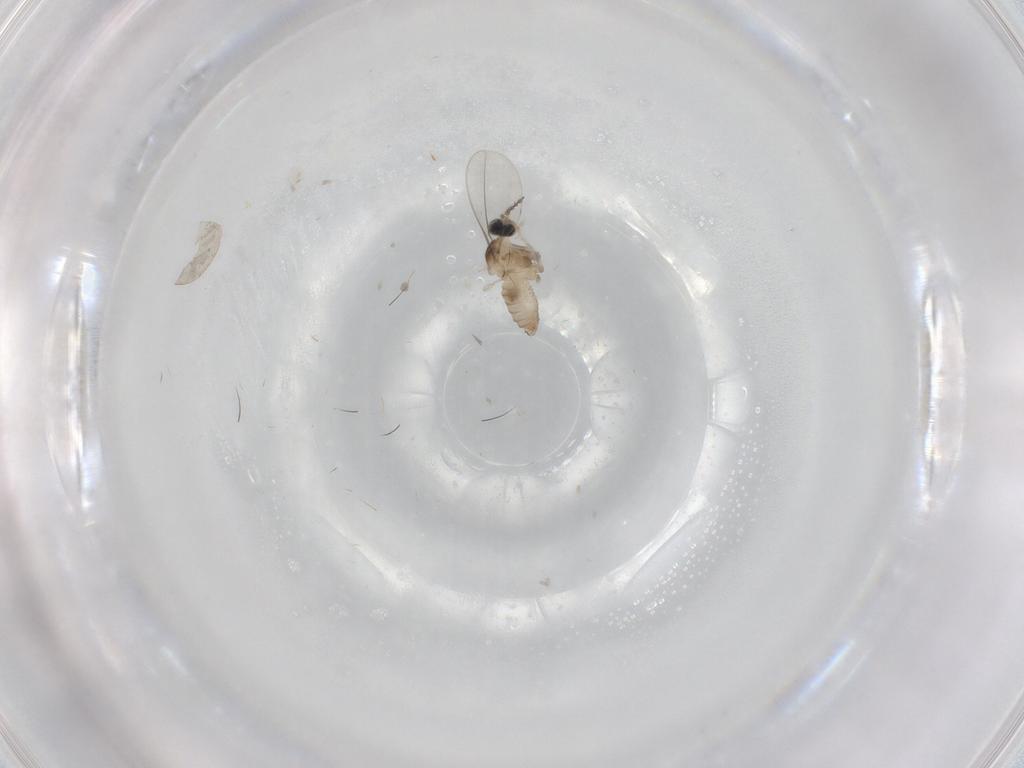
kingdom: Animalia
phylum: Arthropoda
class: Insecta
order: Diptera
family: Cecidomyiidae
